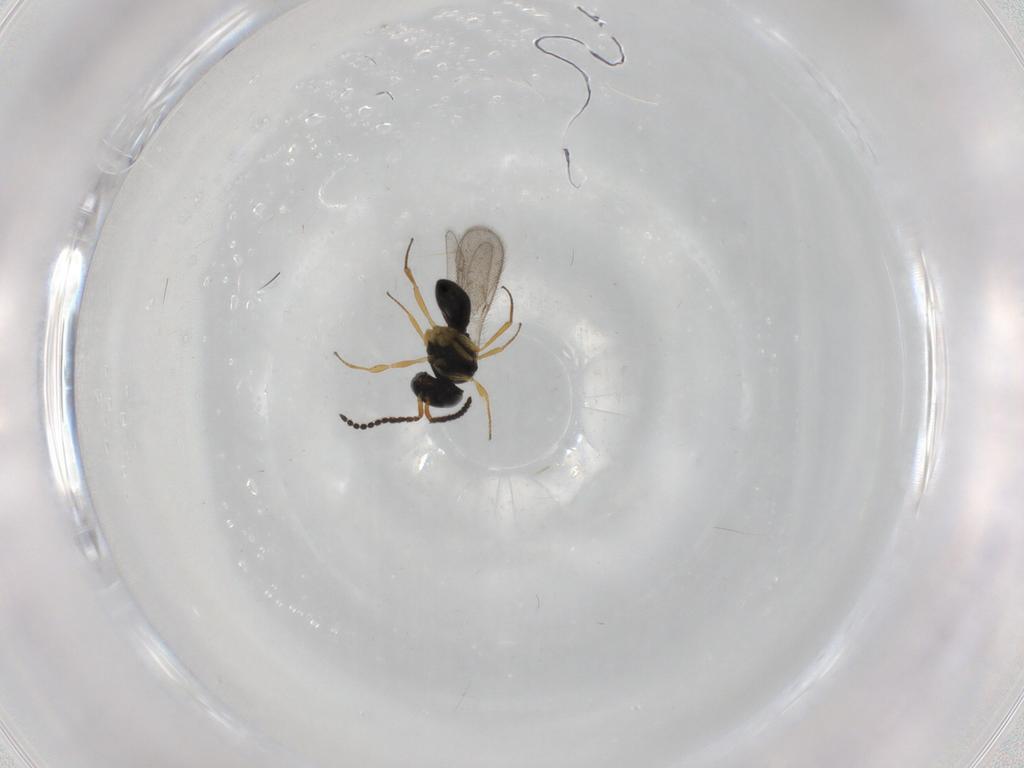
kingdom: Animalia
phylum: Arthropoda
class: Insecta
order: Hymenoptera
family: Scelionidae
